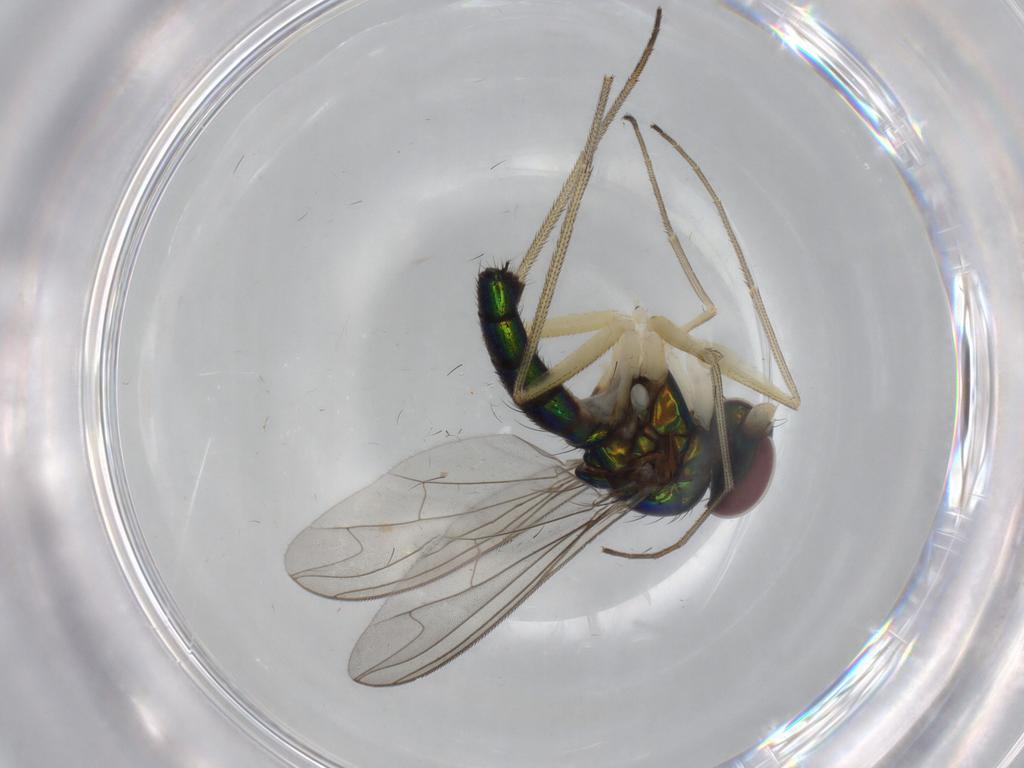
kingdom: Animalia
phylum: Arthropoda
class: Insecta
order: Diptera
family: Dolichopodidae
